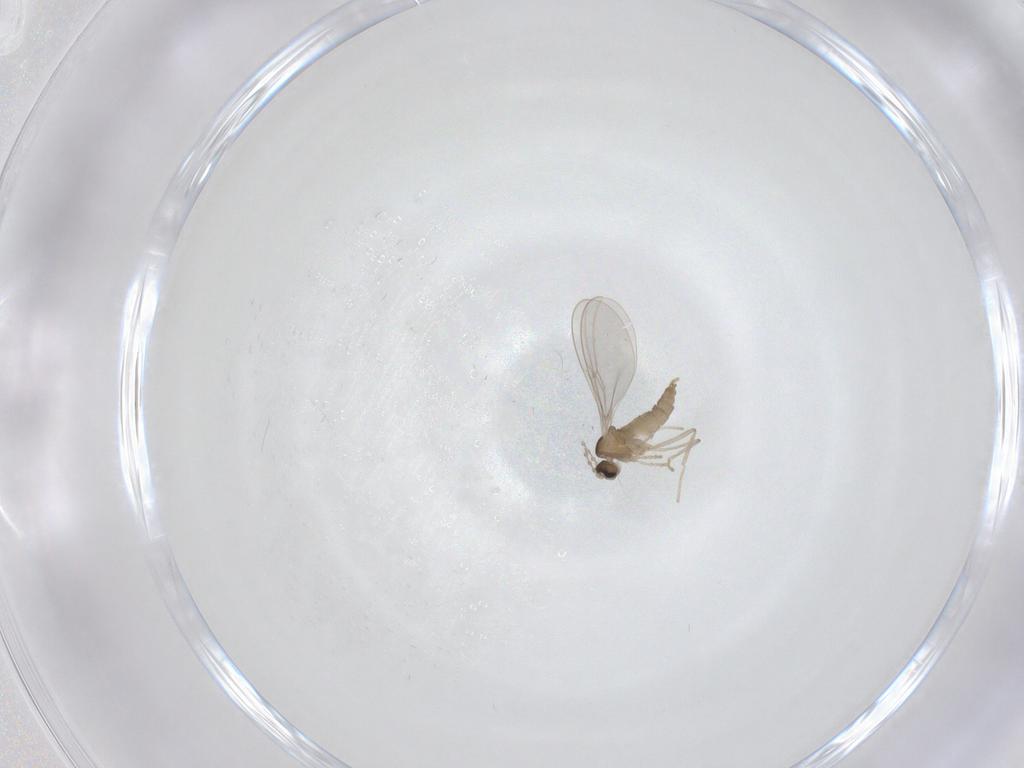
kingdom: Animalia
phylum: Arthropoda
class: Insecta
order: Diptera
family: Cecidomyiidae
